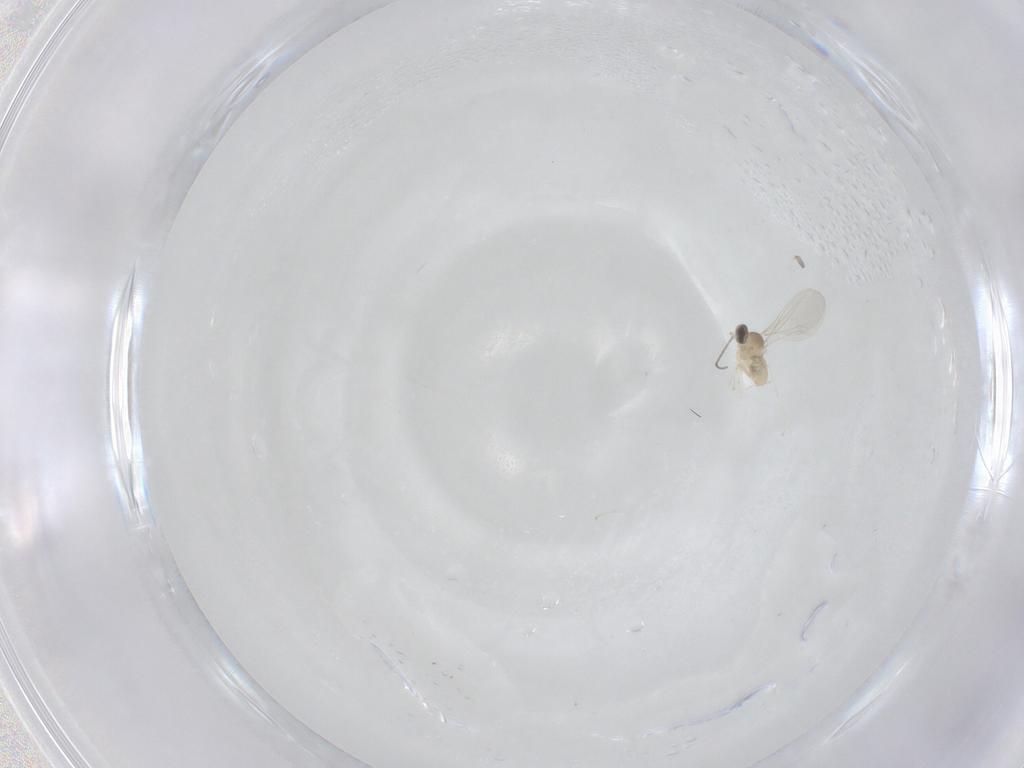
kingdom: Animalia
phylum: Arthropoda
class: Insecta
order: Diptera
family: Cecidomyiidae
